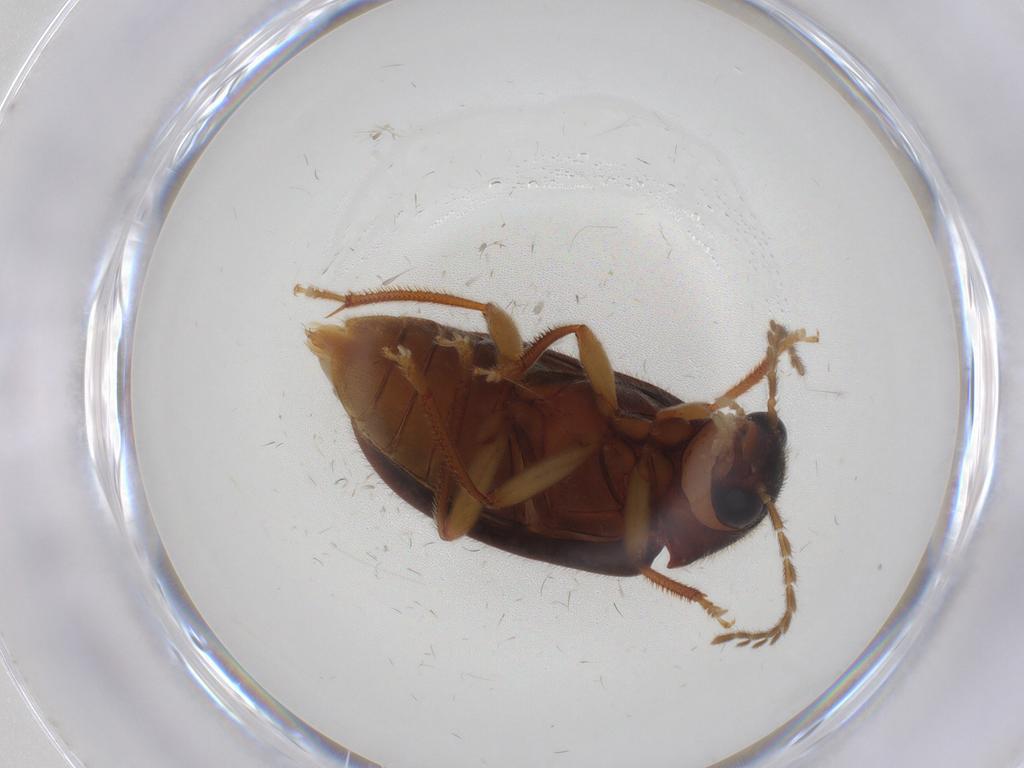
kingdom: Animalia
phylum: Arthropoda
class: Insecta
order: Coleoptera
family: Ptilodactylidae
